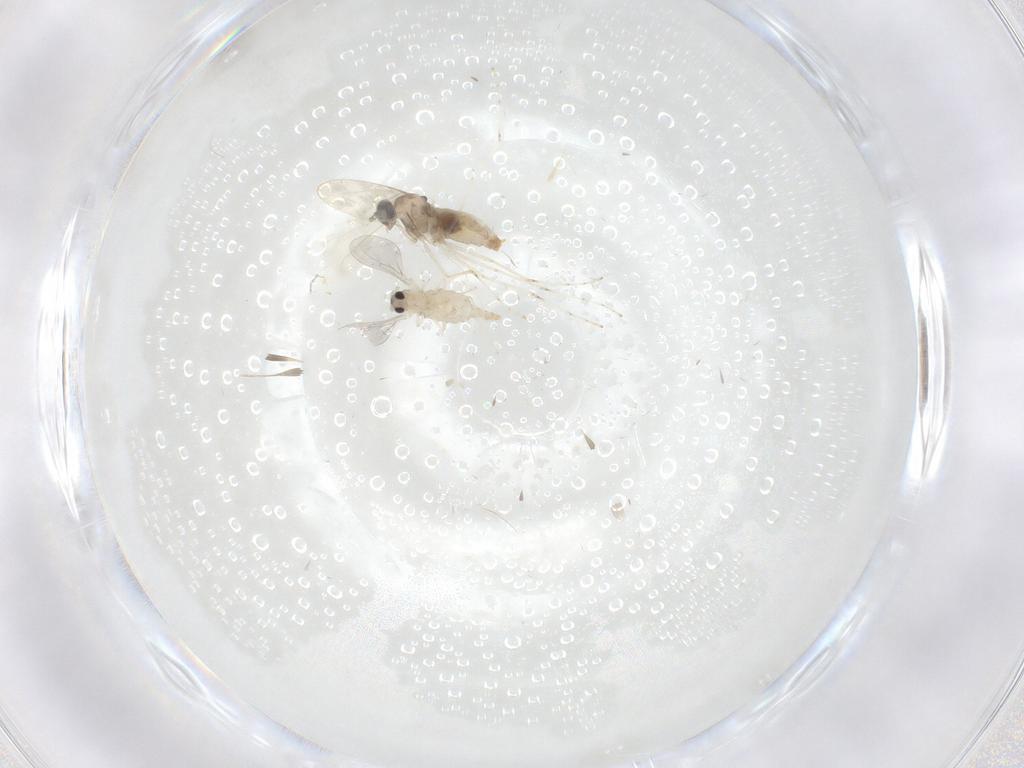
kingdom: Animalia
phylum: Arthropoda
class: Insecta
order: Diptera
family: Cecidomyiidae
